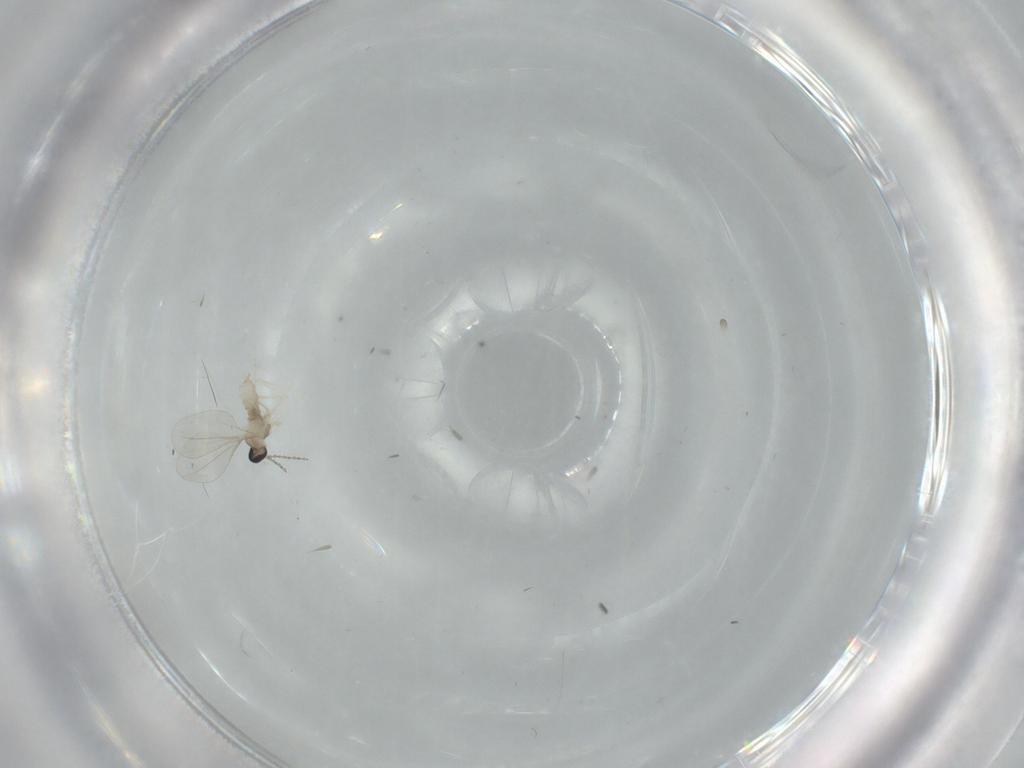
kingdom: Animalia
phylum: Arthropoda
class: Insecta
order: Diptera
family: Cecidomyiidae
